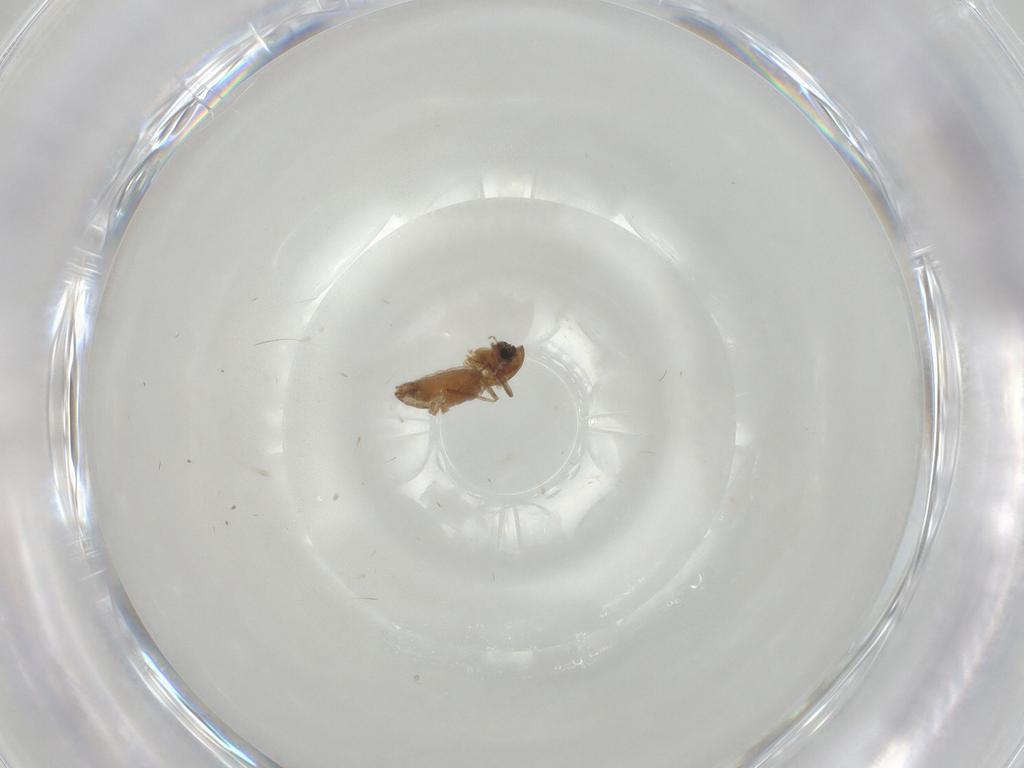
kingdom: Animalia
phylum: Arthropoda
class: Insecta
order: Diptera
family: Chironomidae
